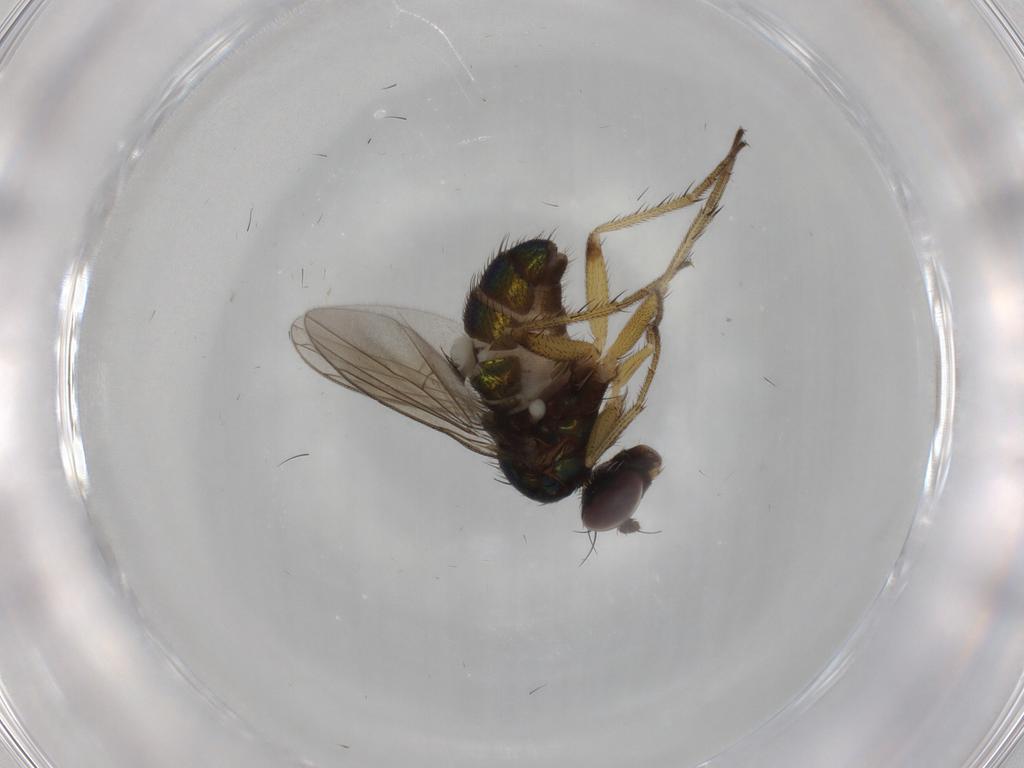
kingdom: Animalia
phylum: Arthropoda
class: Insecta
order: Diptera
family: Dolichopodidae
